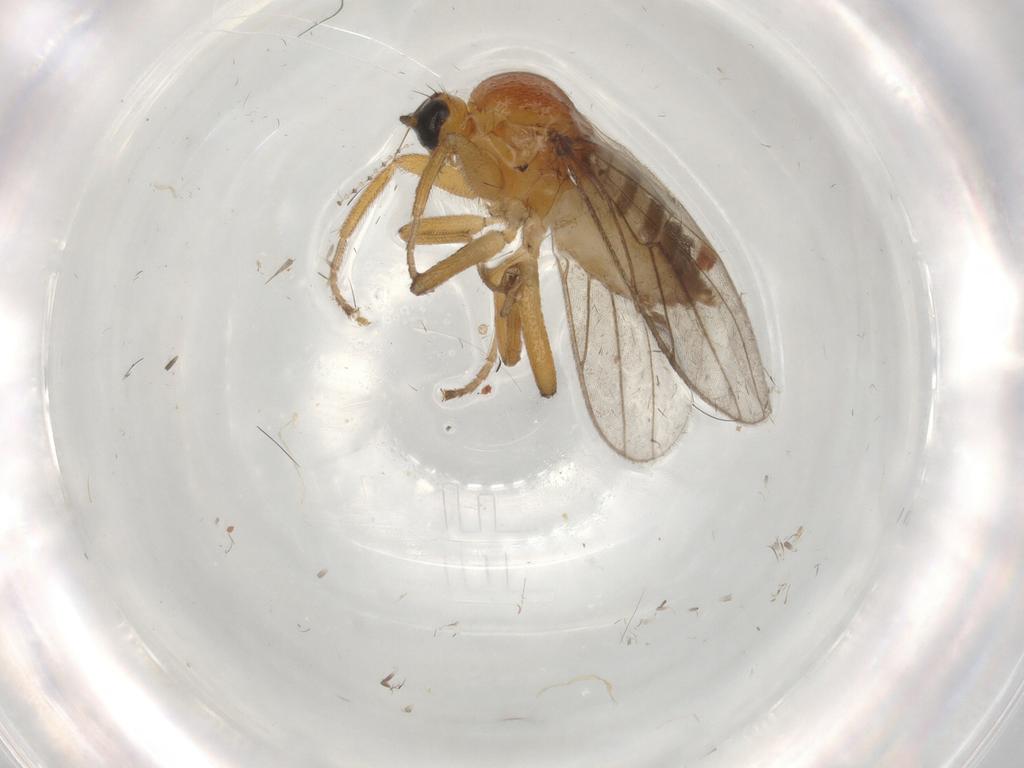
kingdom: Animalia
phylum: Arthropoda
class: Insecta
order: Diptera
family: Hybotidae
